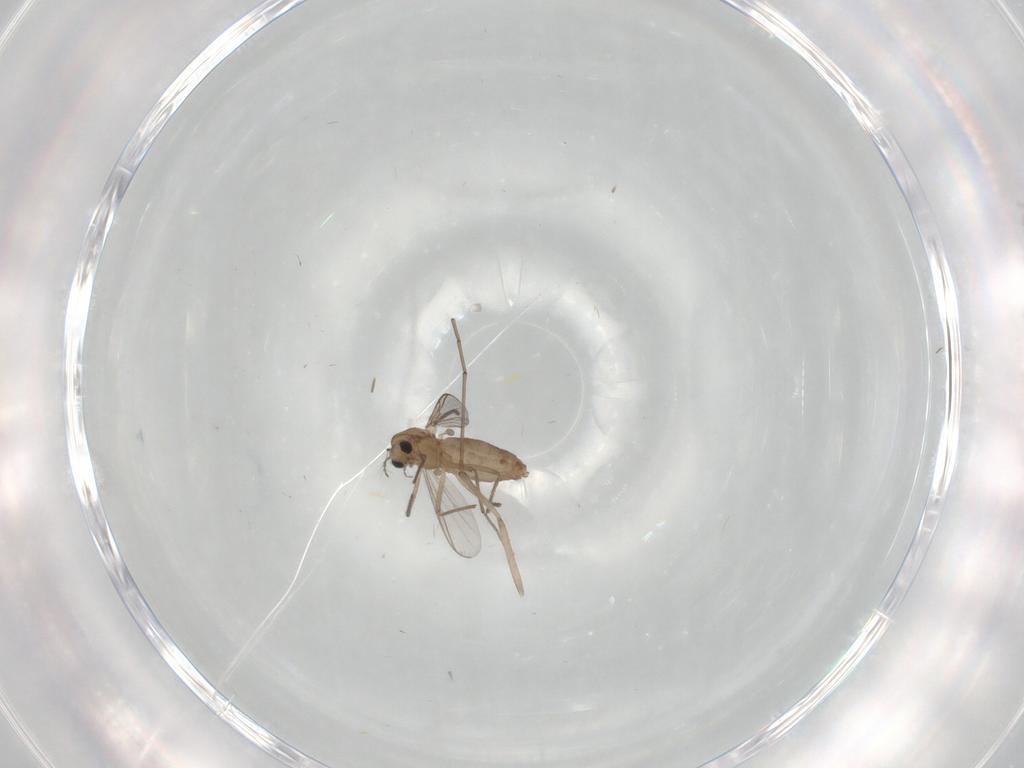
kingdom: Animalia
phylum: Arthropoda
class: Insecta
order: Diptera
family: Chironomidae
